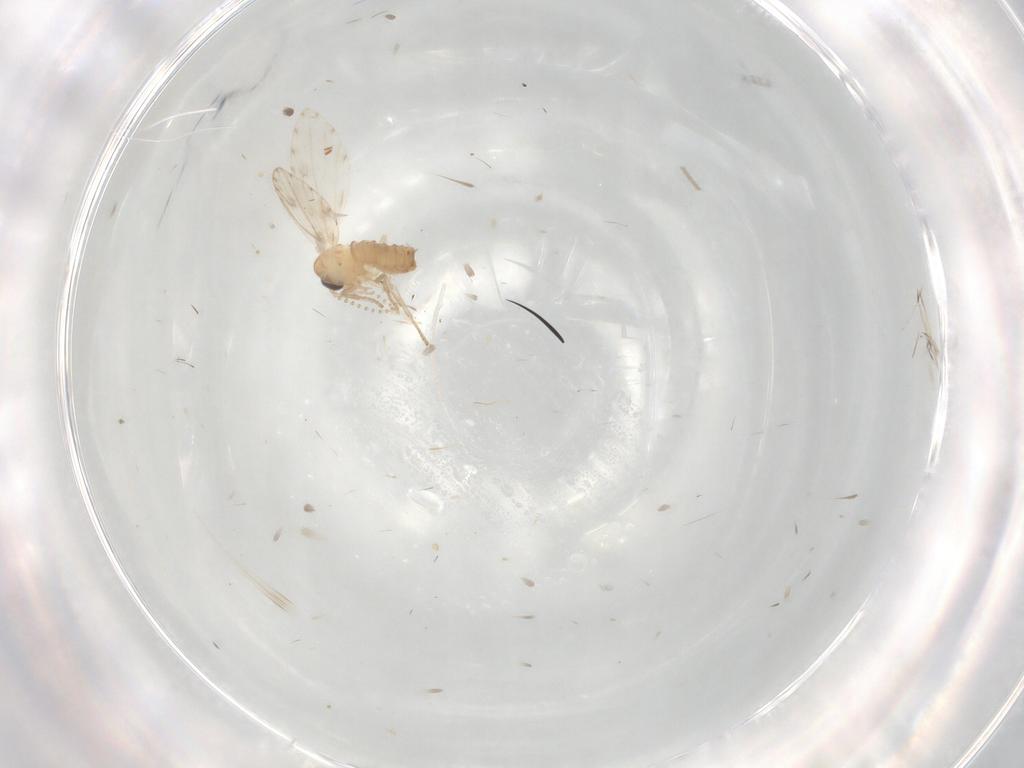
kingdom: Animalia
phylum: Arthropoda
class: Insecta
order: Diptera
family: Psychodidae
